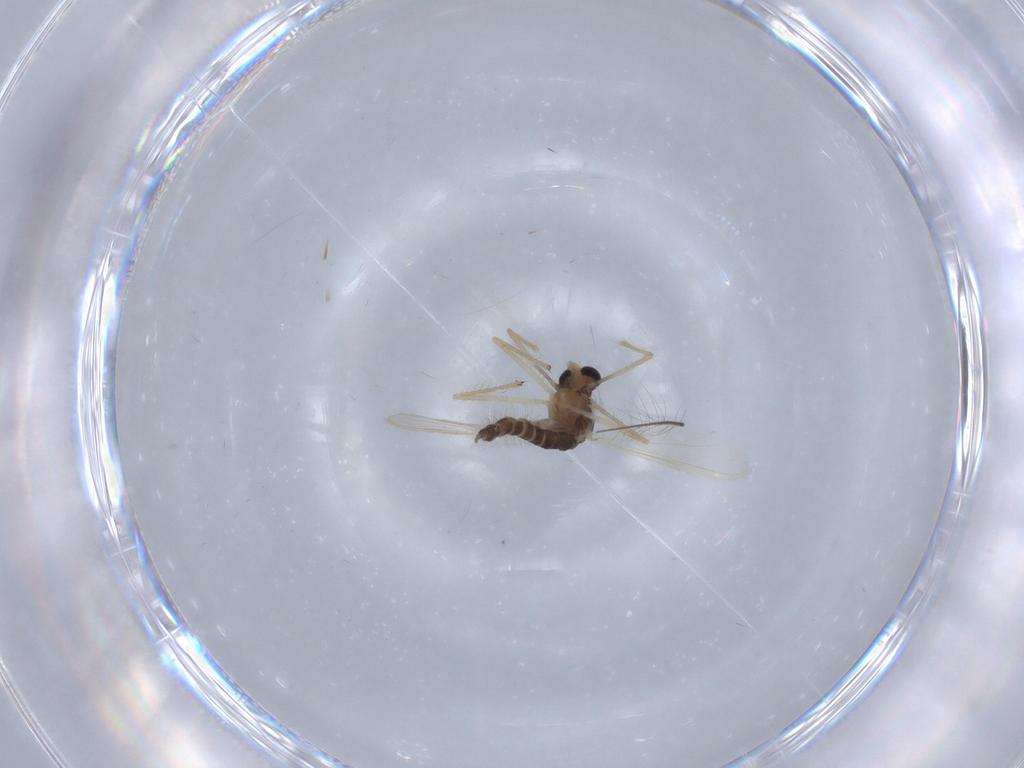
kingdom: Animalia
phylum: Arthropoda
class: Insecta
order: Diptera
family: Chironomidae
